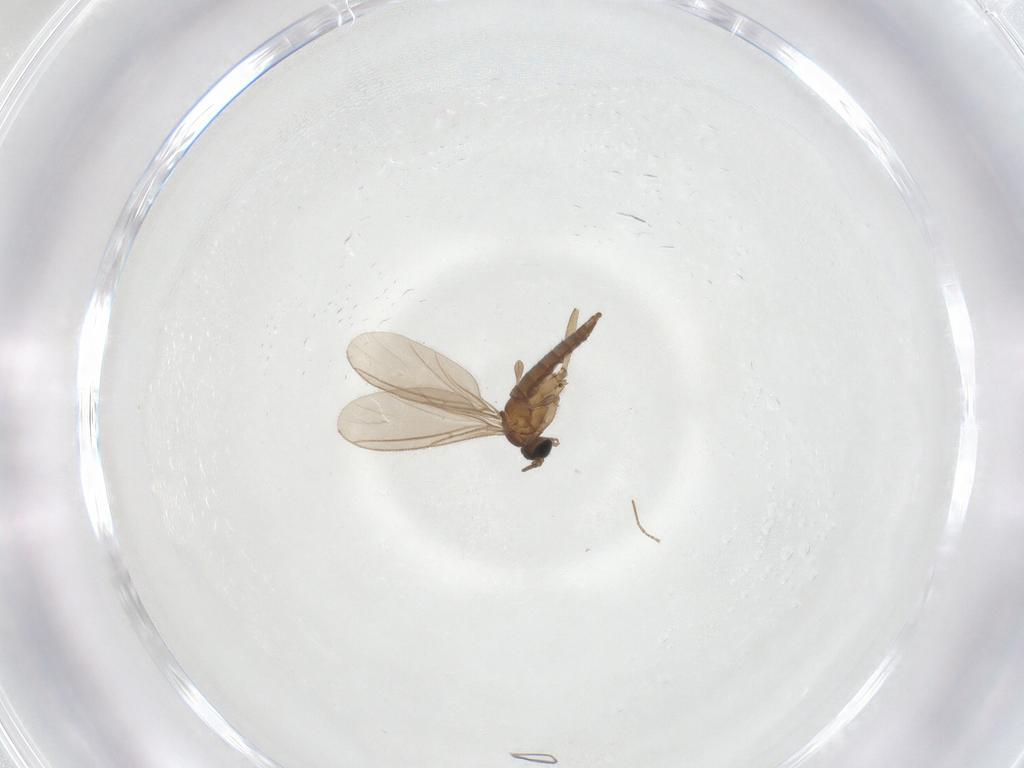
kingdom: Animalia
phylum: Arthropoda
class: Insecta
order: Diptera
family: Sciaridae
